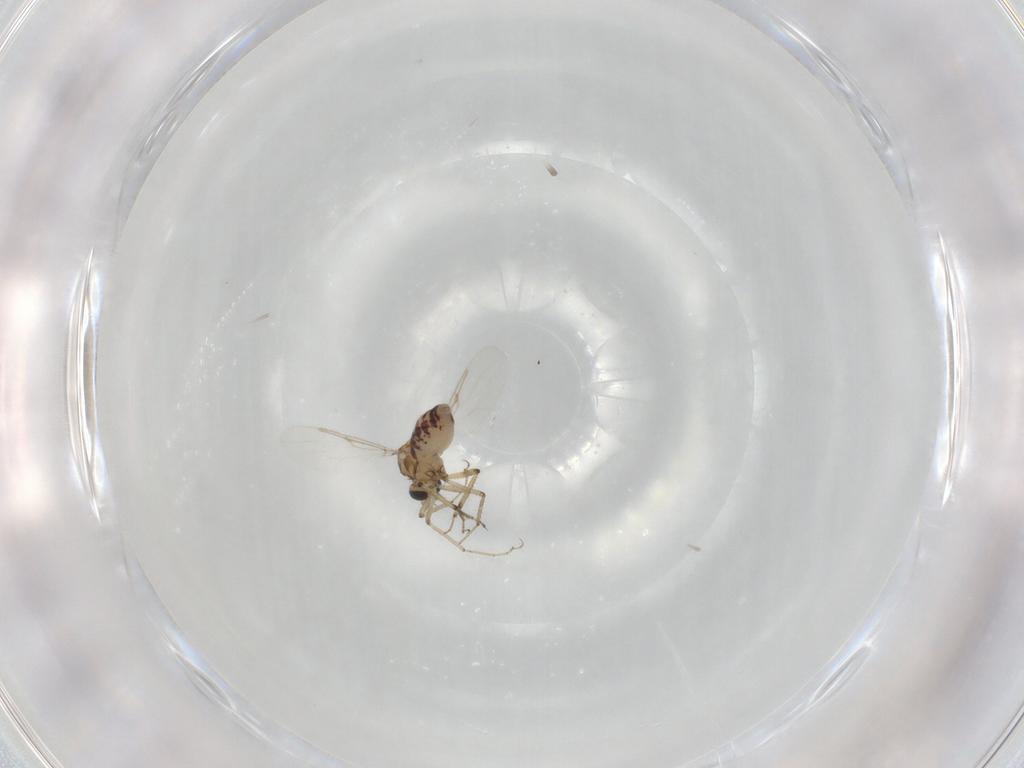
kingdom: Animalia
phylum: Arthropoda
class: Insecta
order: Diptera
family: Ceratopogonidae
